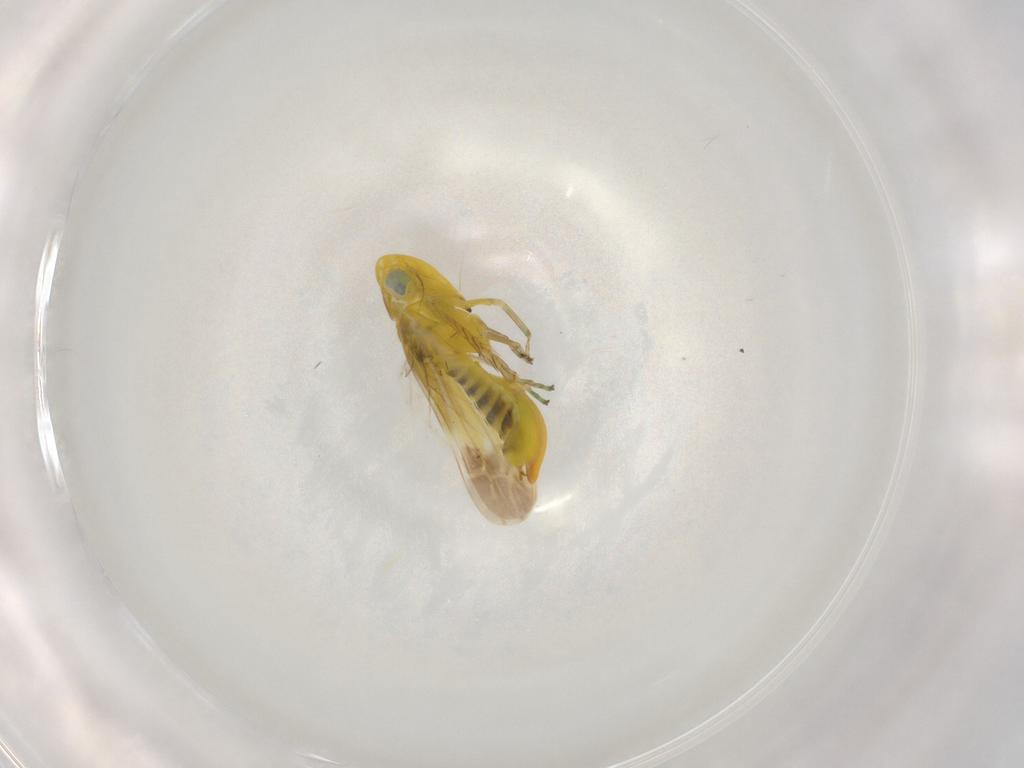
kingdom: Animalia
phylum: Arthropoda
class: Insecta
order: Hemiptera
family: Cicadellidae
